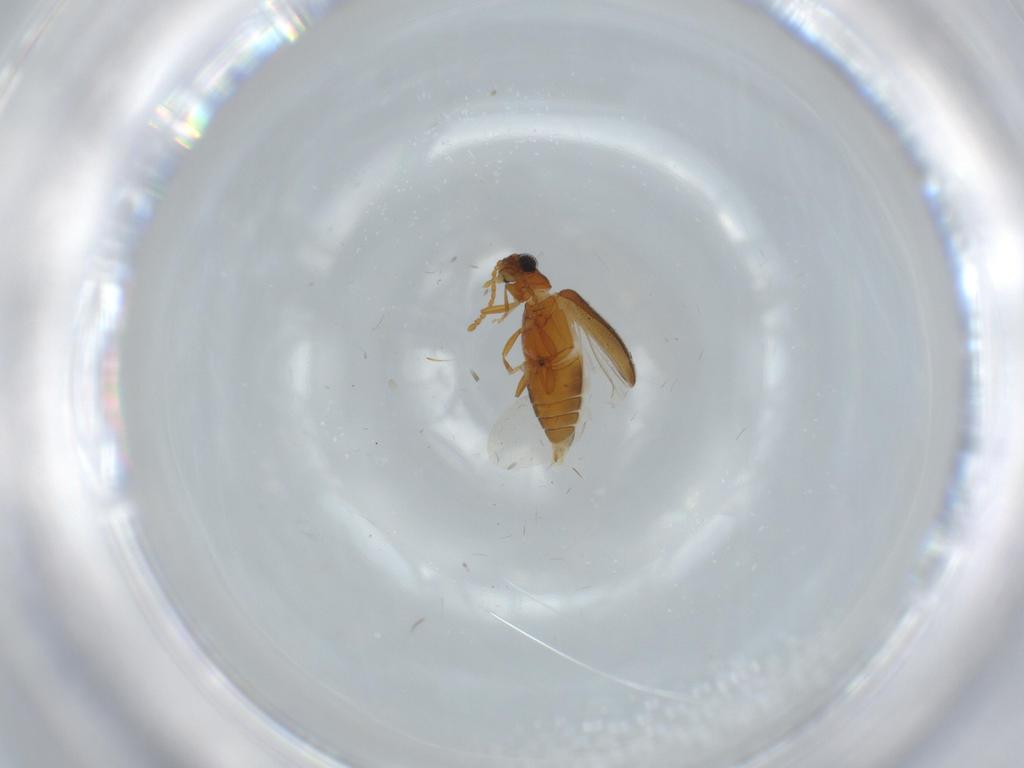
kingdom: Animalia
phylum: Arthropoda
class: Insecta
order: Coleoptera
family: Aderidae
